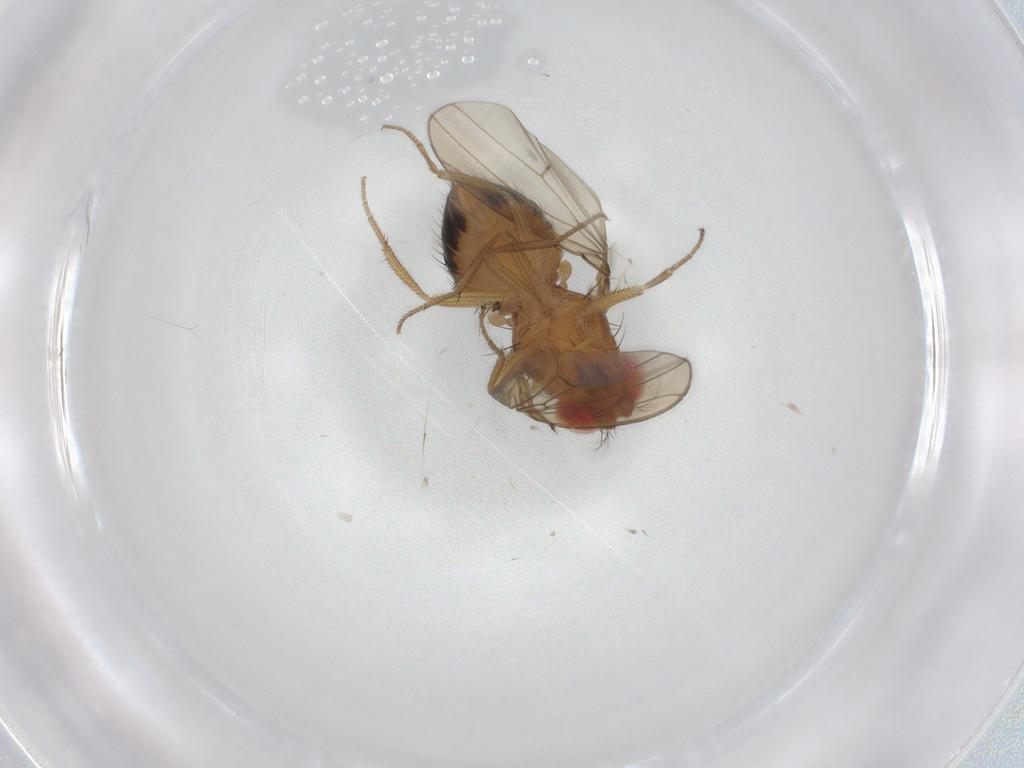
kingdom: Animalia
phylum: Arthropoda
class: Insecta
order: Diptera
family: Drosophilidae
